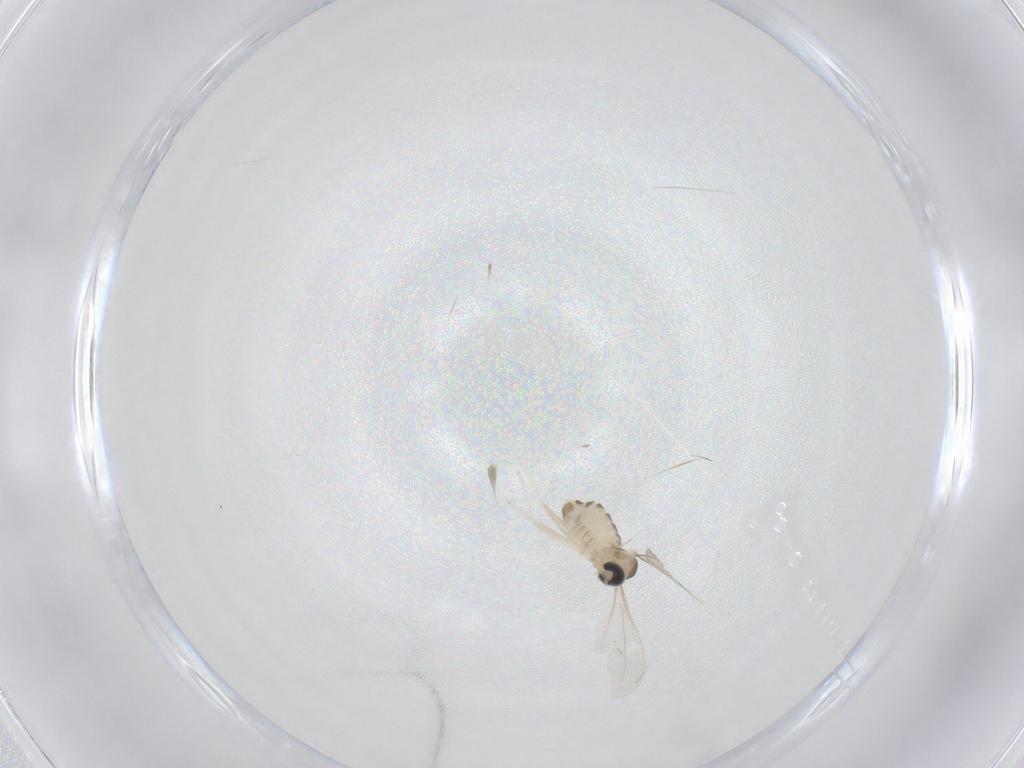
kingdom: Animalia
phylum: Arthropoda
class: Insecta
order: Diptera
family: Cecidomyiidae
